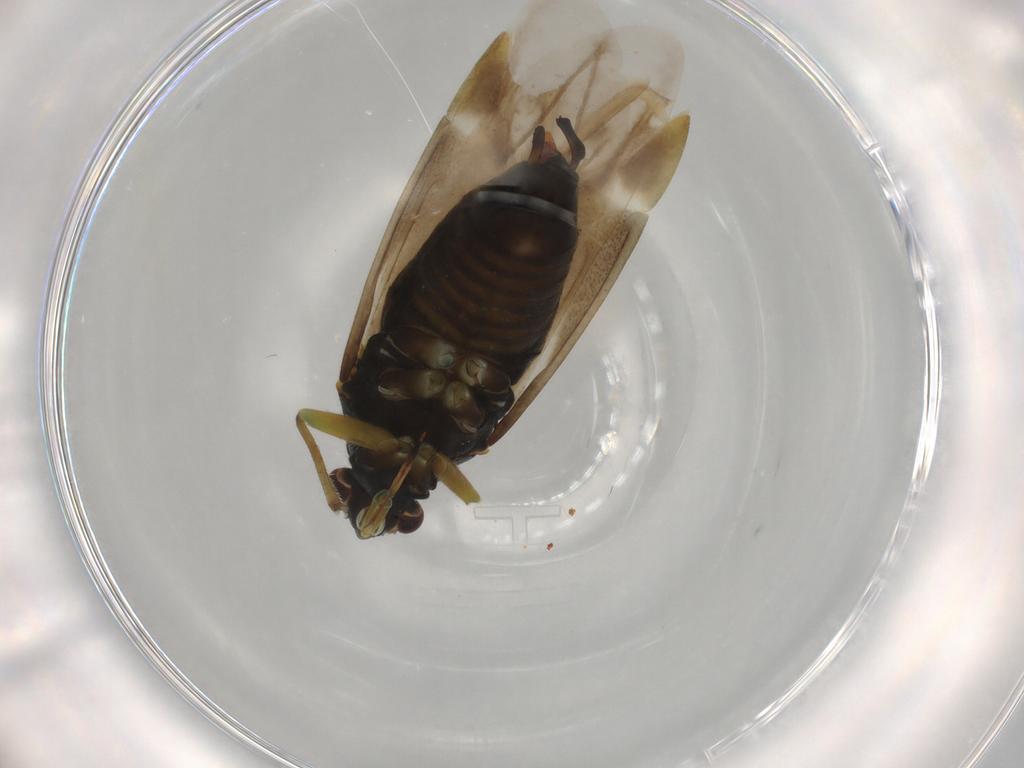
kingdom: Animalia
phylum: Arthropoda
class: Insecta
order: Hemiptera
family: Miridae
